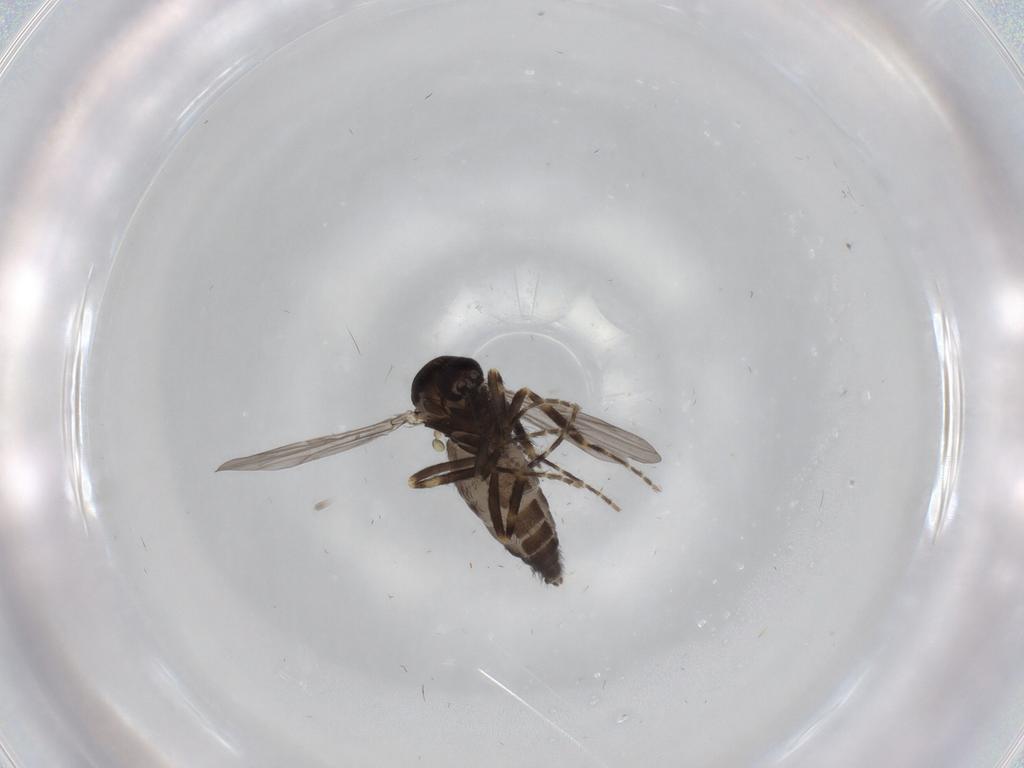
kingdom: Animalia
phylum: Arthropoda
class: Insecta
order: Diptera
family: Ceratopogonidae
